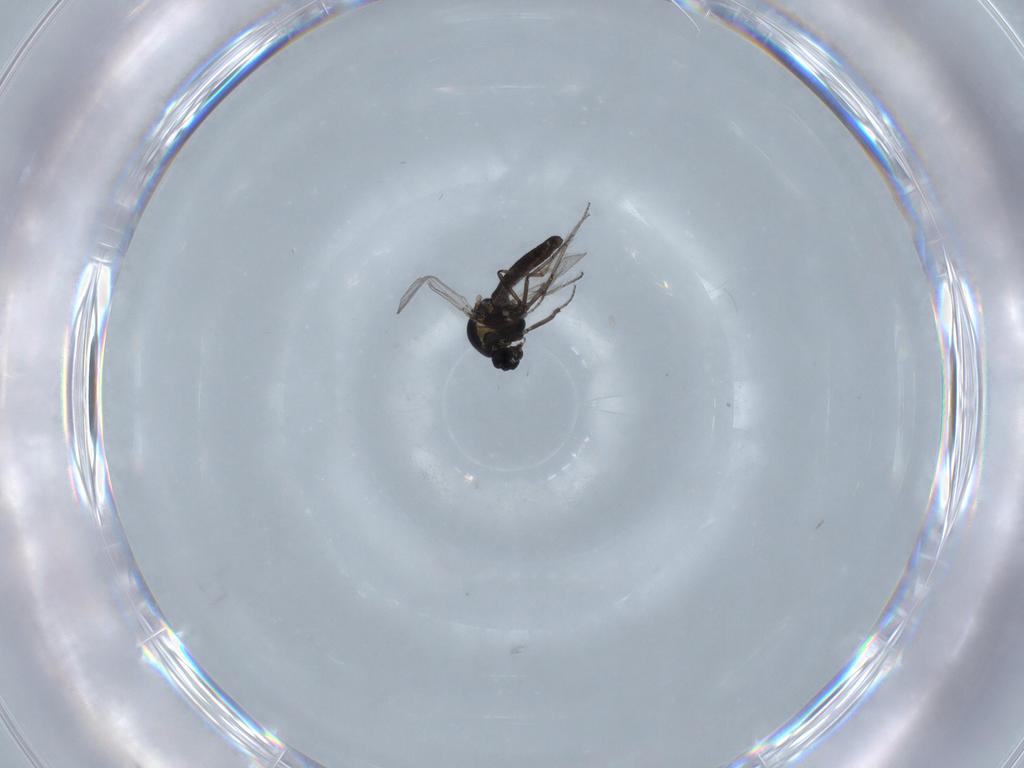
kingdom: Animalia
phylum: Arthropoda
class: Insecta
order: Diptera
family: Ceratopogonidae
